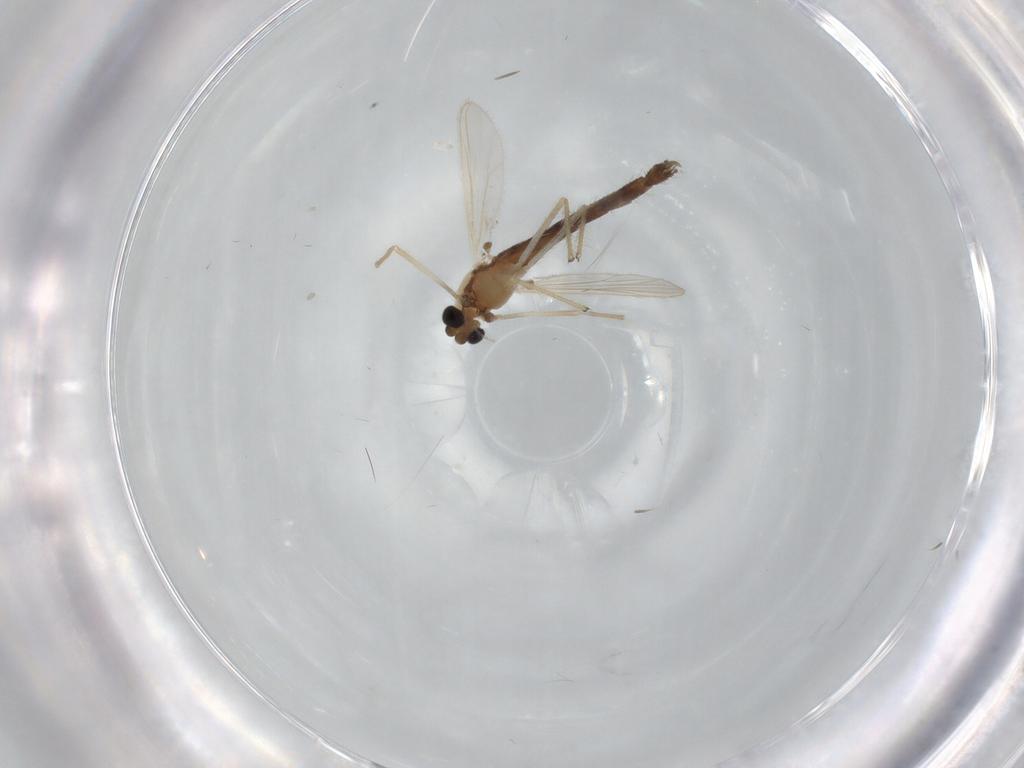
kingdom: Animalia
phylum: Arthropoda
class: Insecta
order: Diptera
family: Chironomidae
